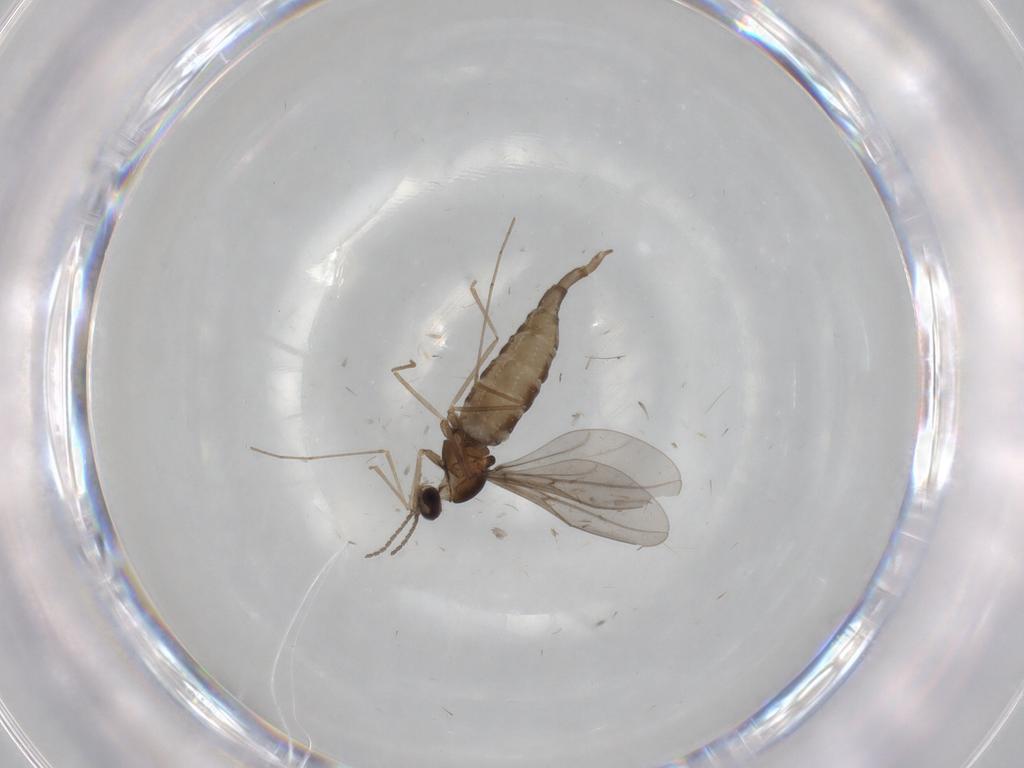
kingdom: Animalia
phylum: Arthropoda
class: Insecta
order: Diptera
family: Cecidomyiidae
